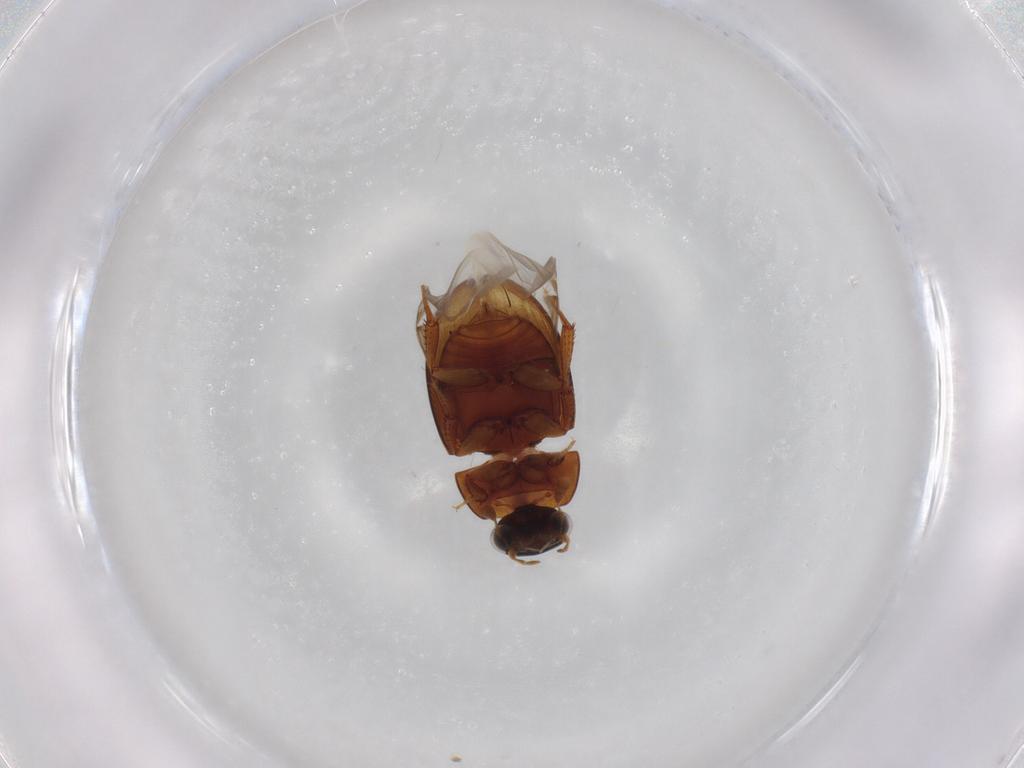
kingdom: Animalia
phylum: Arthropoda
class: Insecta
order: Coleoptera
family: Hydrophilidae
